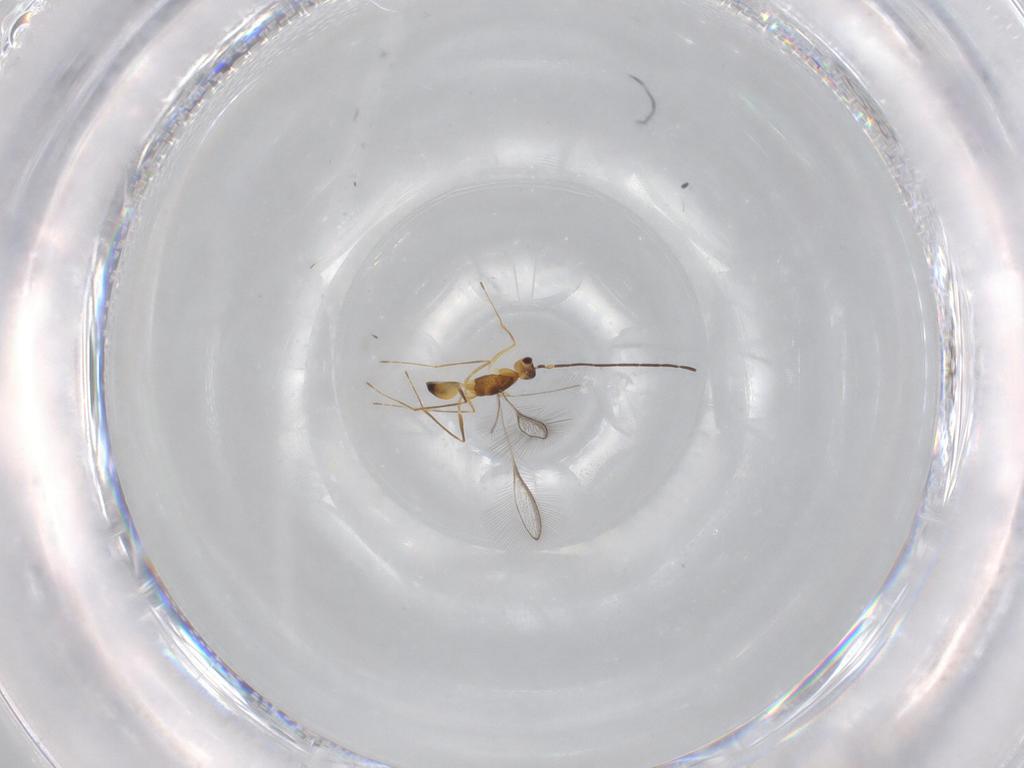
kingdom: Animalia
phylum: Arthropoda
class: Insecta
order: Hymenoptera
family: Mymaridae
